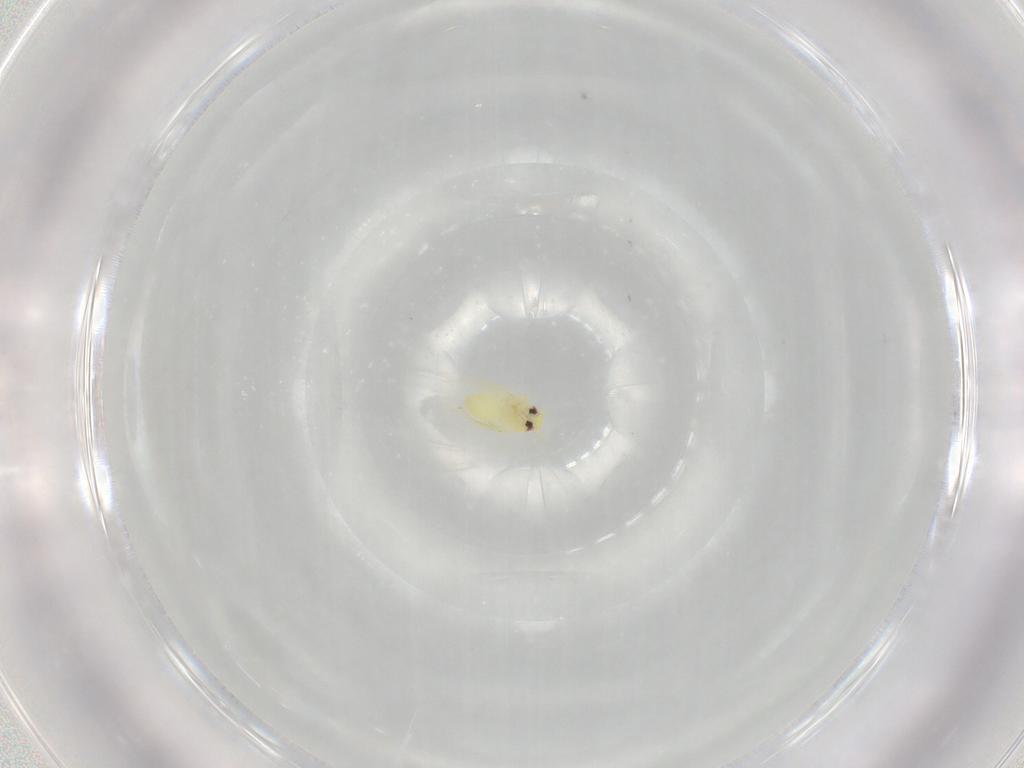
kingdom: Animalia
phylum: Arthropoda
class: Insecta
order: Hemiptera
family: Aleyrodidae
